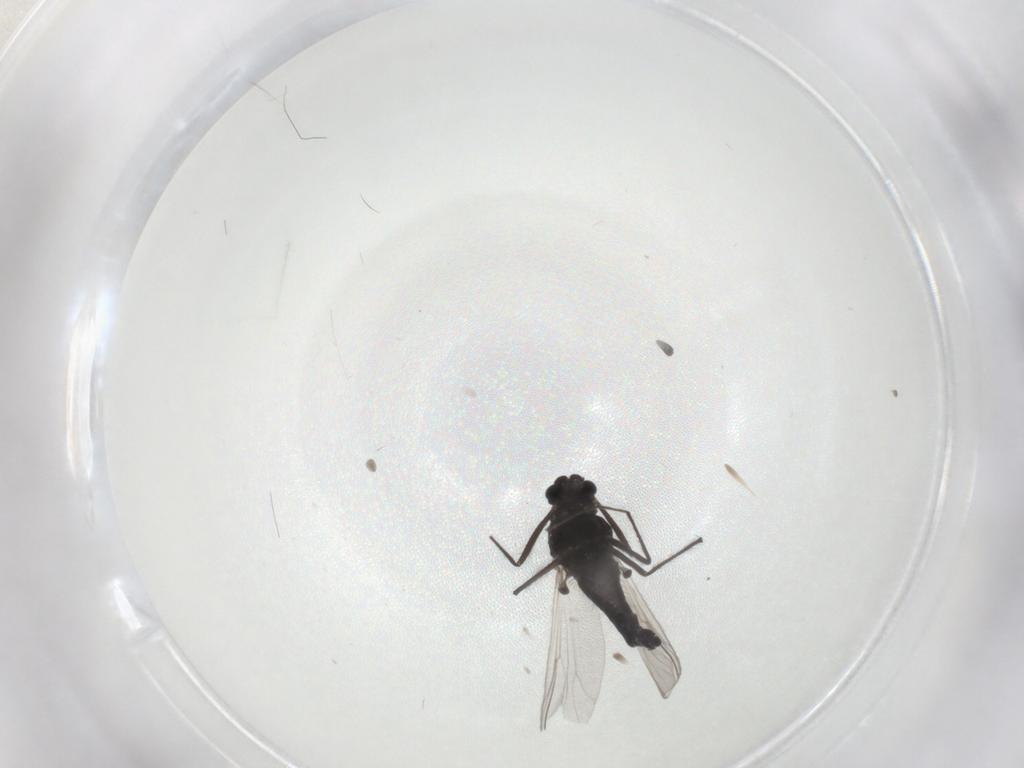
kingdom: Animalia
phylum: Arthropoda
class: Insecta
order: Diptera
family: Chironomidae
